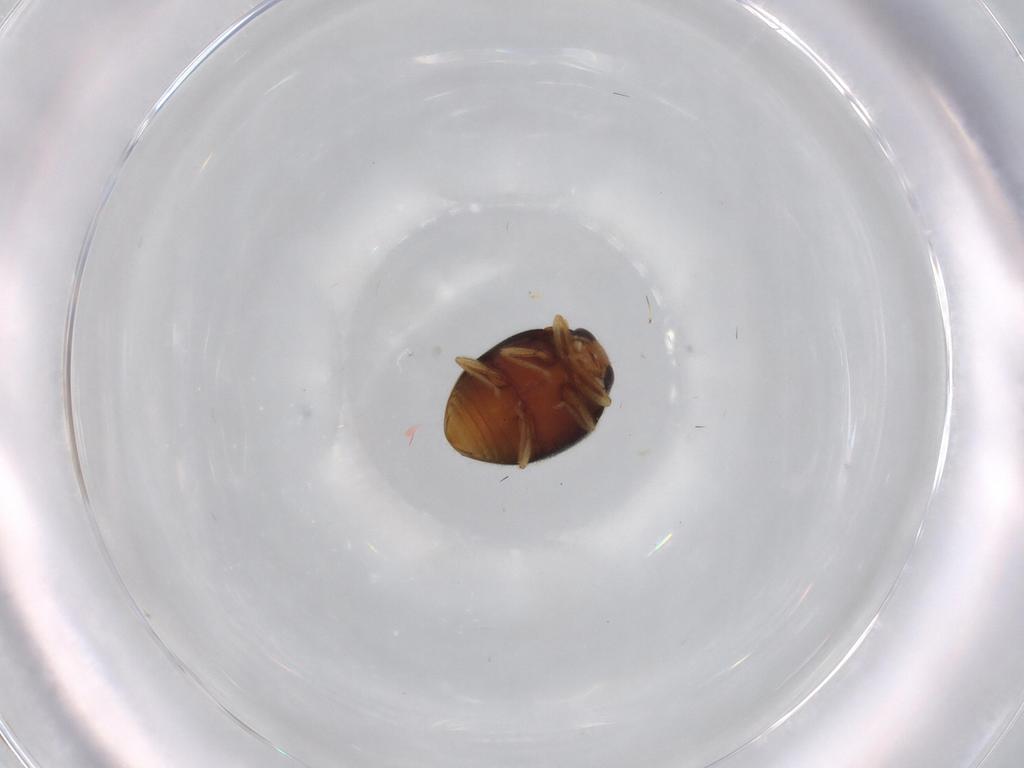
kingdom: Animalia
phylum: Arthropoda
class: Insecta
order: Coleoptera
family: Coccinellidae
